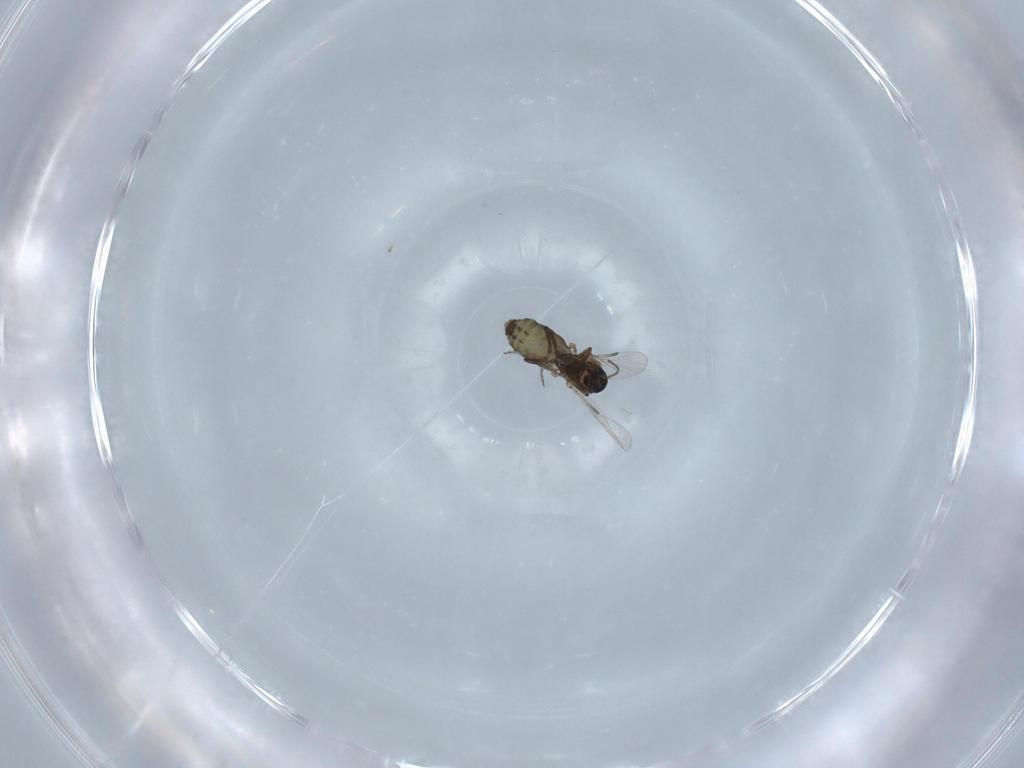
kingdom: Animalia
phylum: Arthropoda
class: Insecta
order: Diptera
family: Ceratopogonidae
